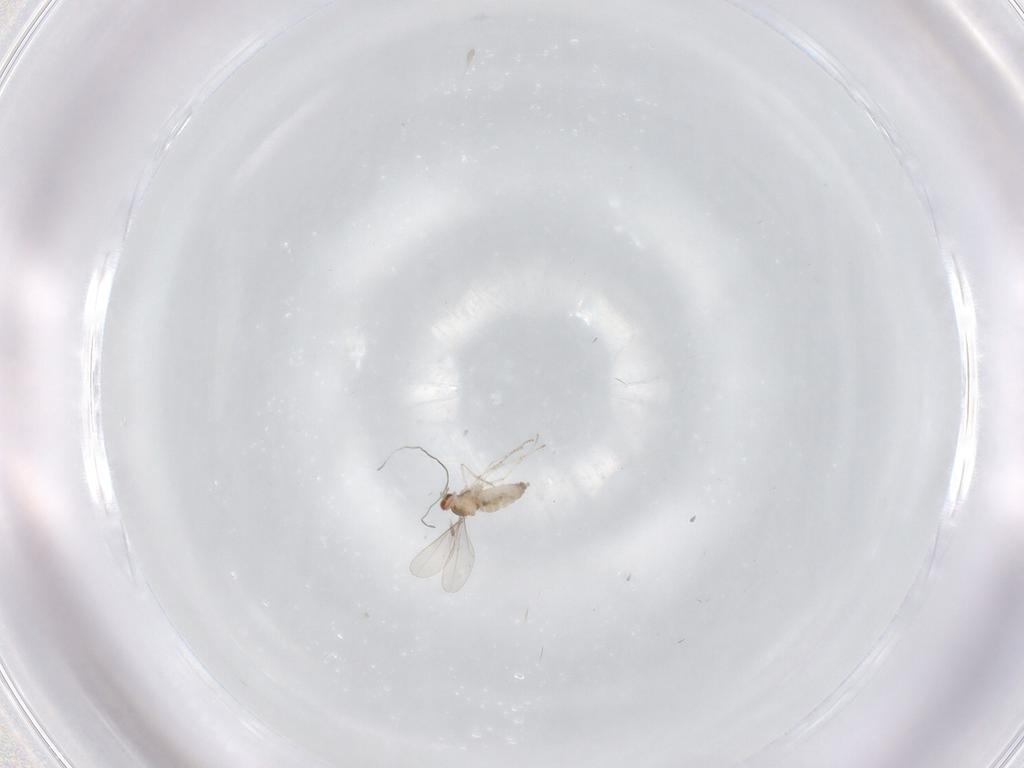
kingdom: Animalia
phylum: Arthropoda
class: Insecta
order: Diptera
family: Cecidomyiidae
